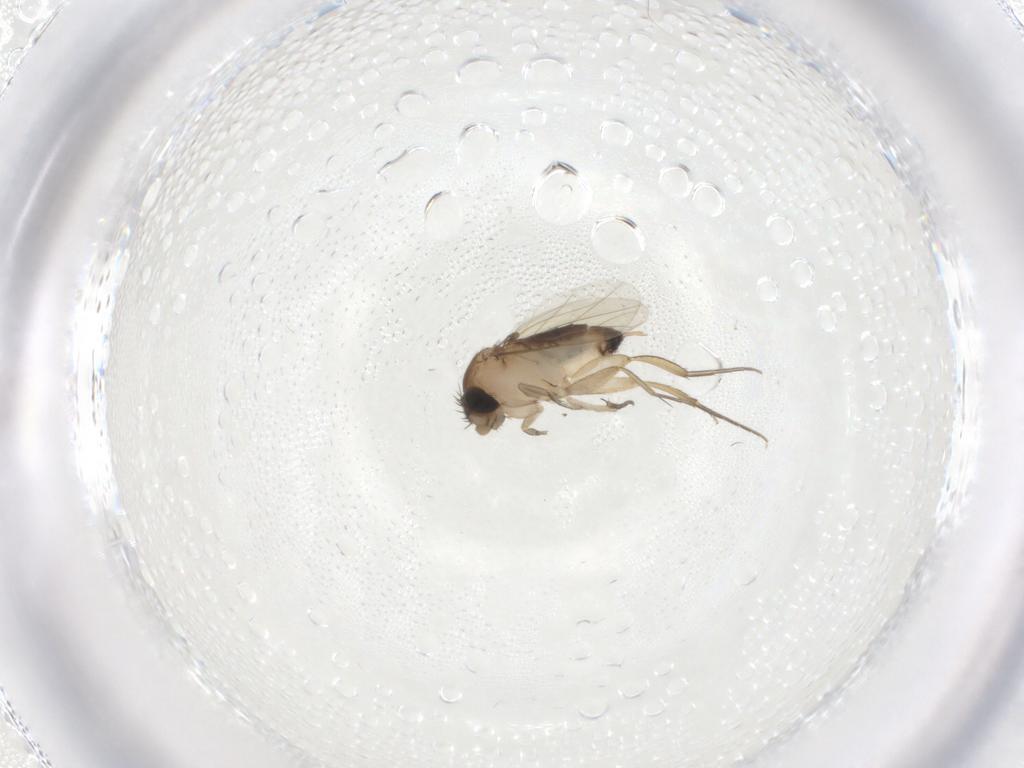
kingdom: Animalia
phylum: Arthropoda
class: Insecta
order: Diptera
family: Phoridae
